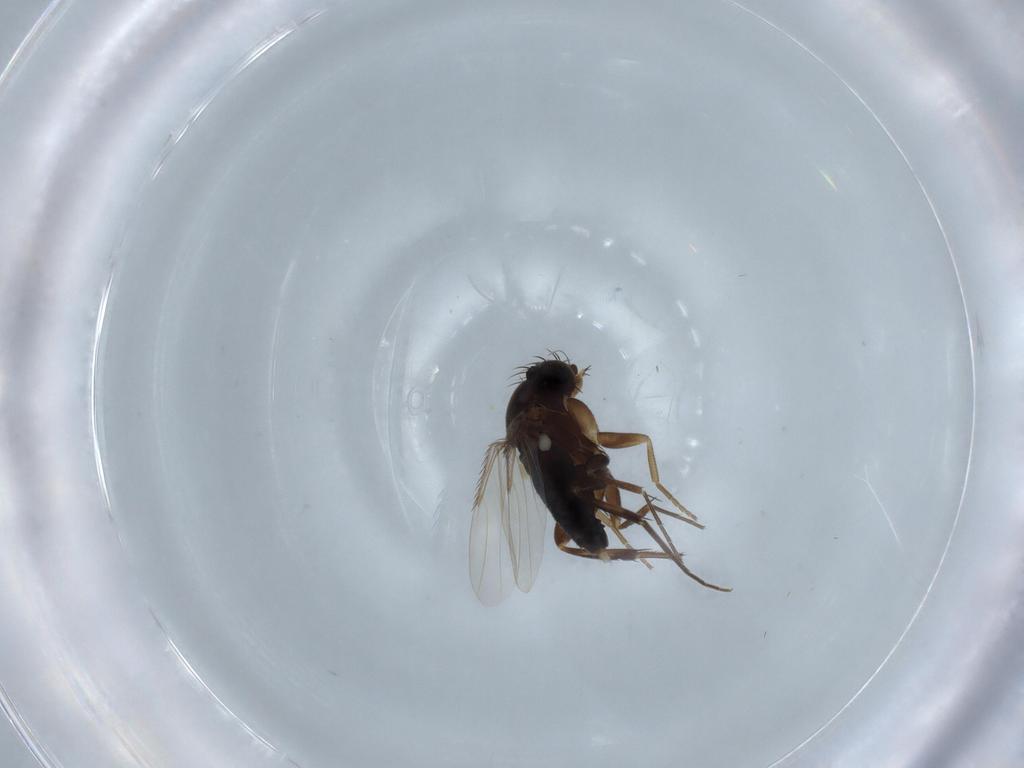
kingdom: Animalia
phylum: Arthropoda
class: Insecta
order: Diptera
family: Phoridae
